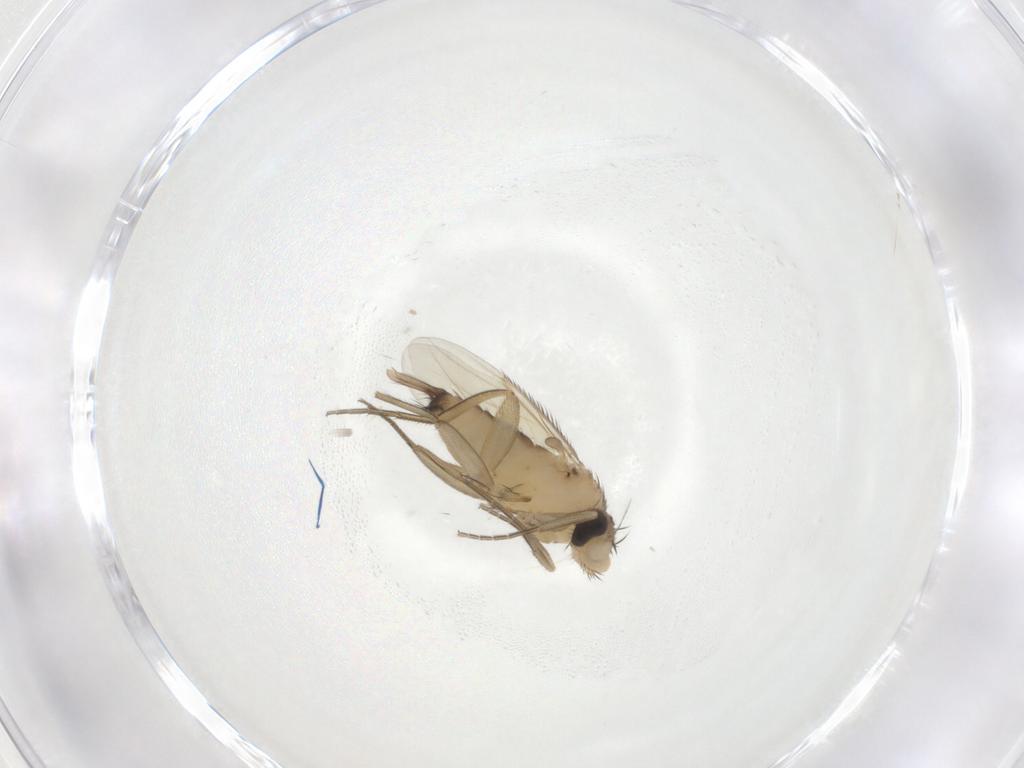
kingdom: Animalia
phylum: Arthropoda
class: Insecta
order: Diptera
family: Phoridae
